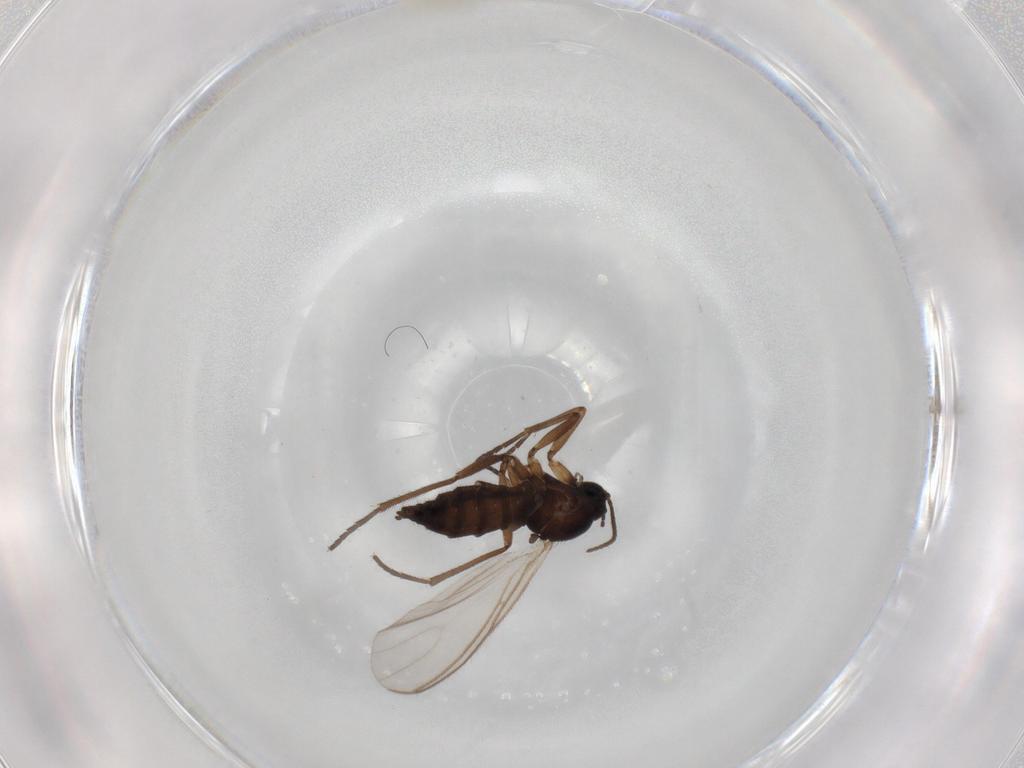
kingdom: Animalia
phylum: Arthropoda
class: Insecta
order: Diptera
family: Sciaridae
